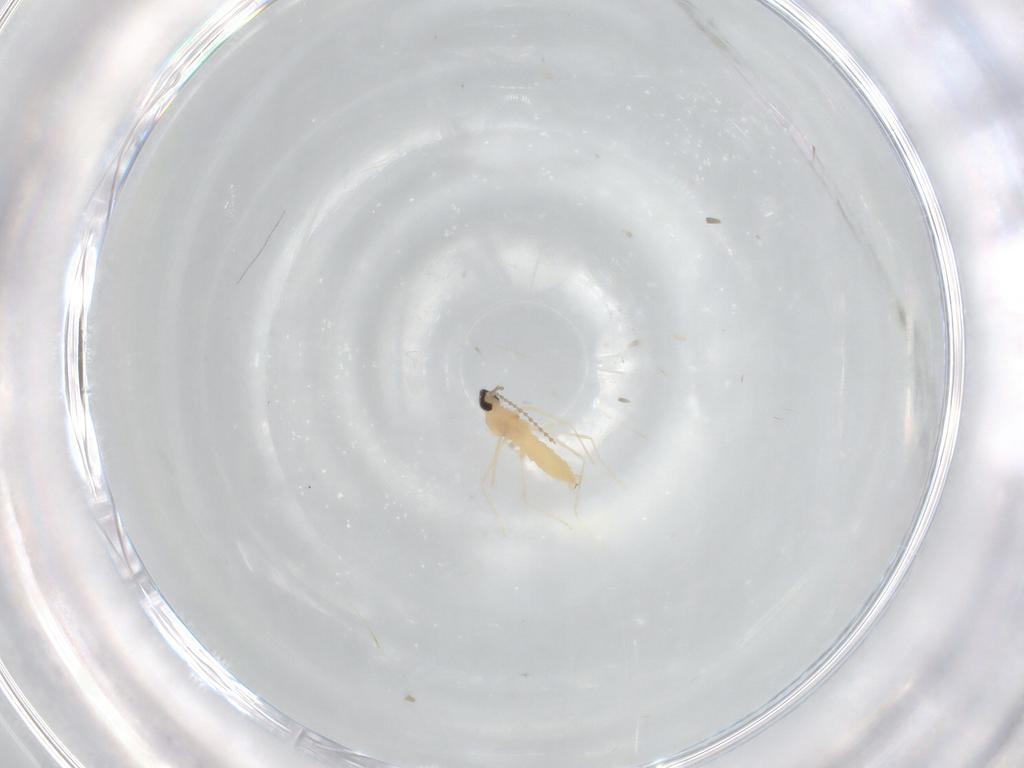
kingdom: Animalia
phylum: Arthropoda
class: Insecta
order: Diptera
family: Cecidomyiidae
